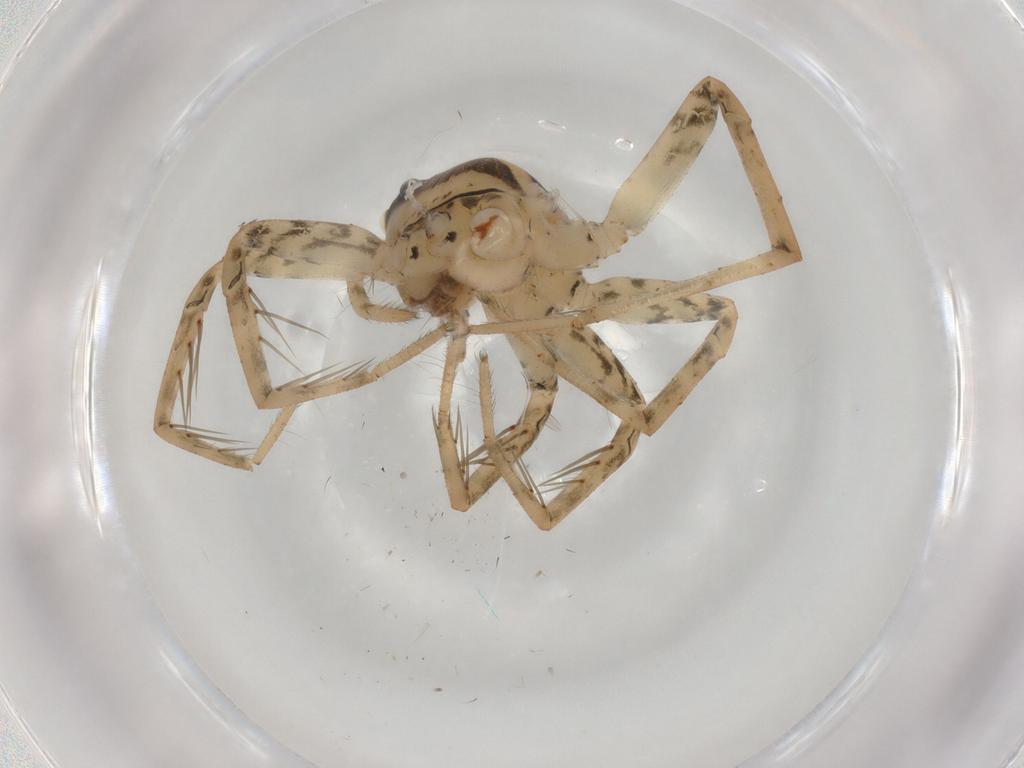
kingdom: Animalia
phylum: Arthropoda
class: Arachnida
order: Araneae
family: Lycosidae
